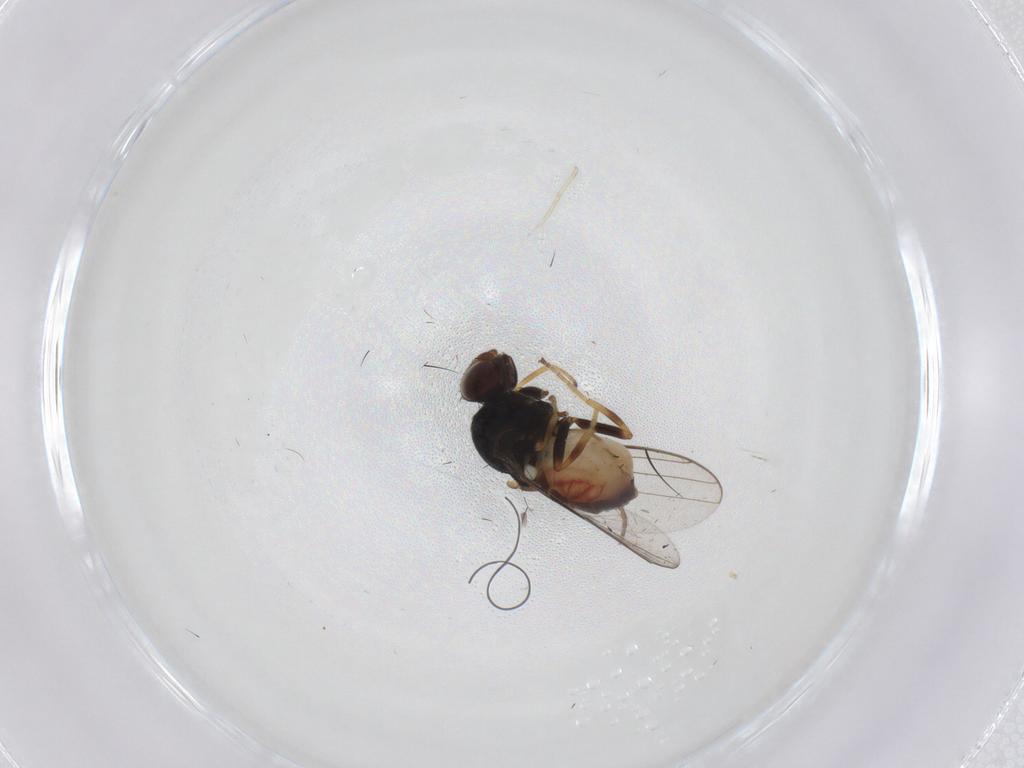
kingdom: Animalia
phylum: Arthropoda
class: Insecta
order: Diptera
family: Chloropidae
